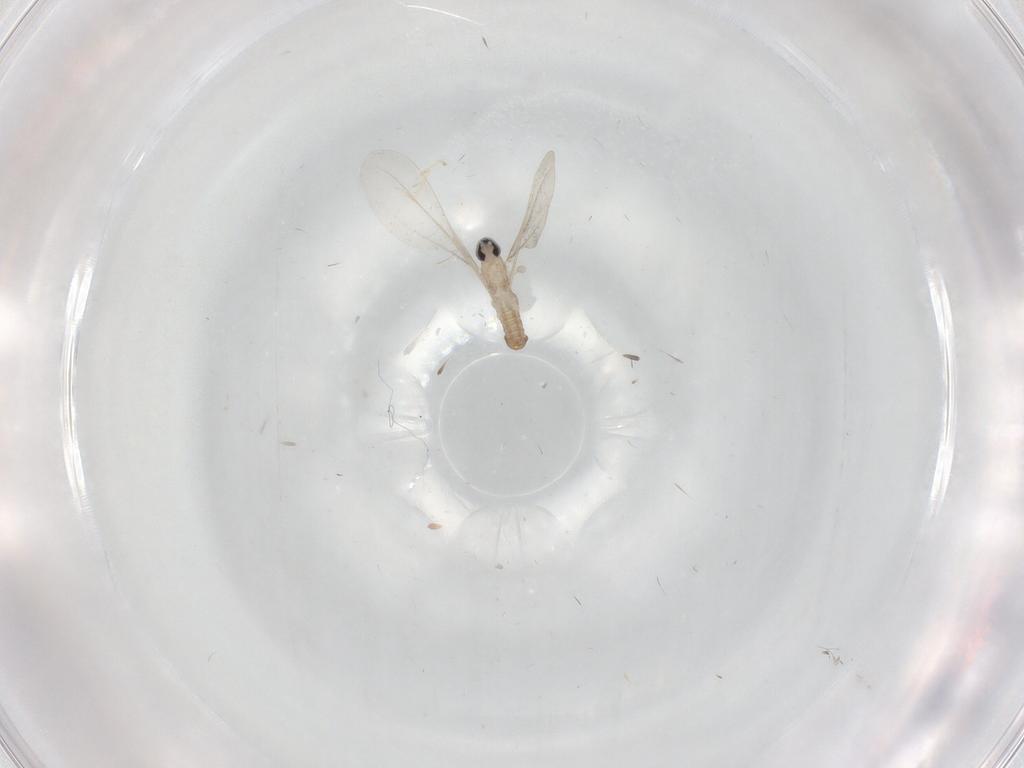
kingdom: Animalia
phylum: Arthropoda
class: Insecta
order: Diptera
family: Cecidomyiidae
